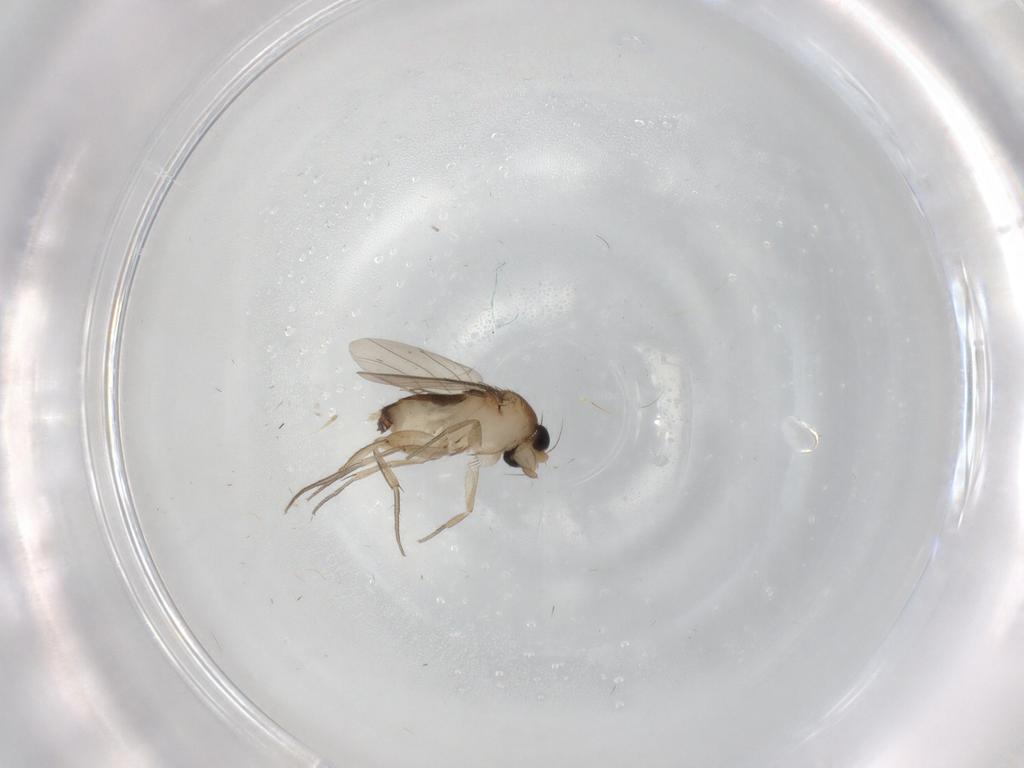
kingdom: Animalia
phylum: Arthropoda
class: Insecta
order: Diptera
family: Phoridae
